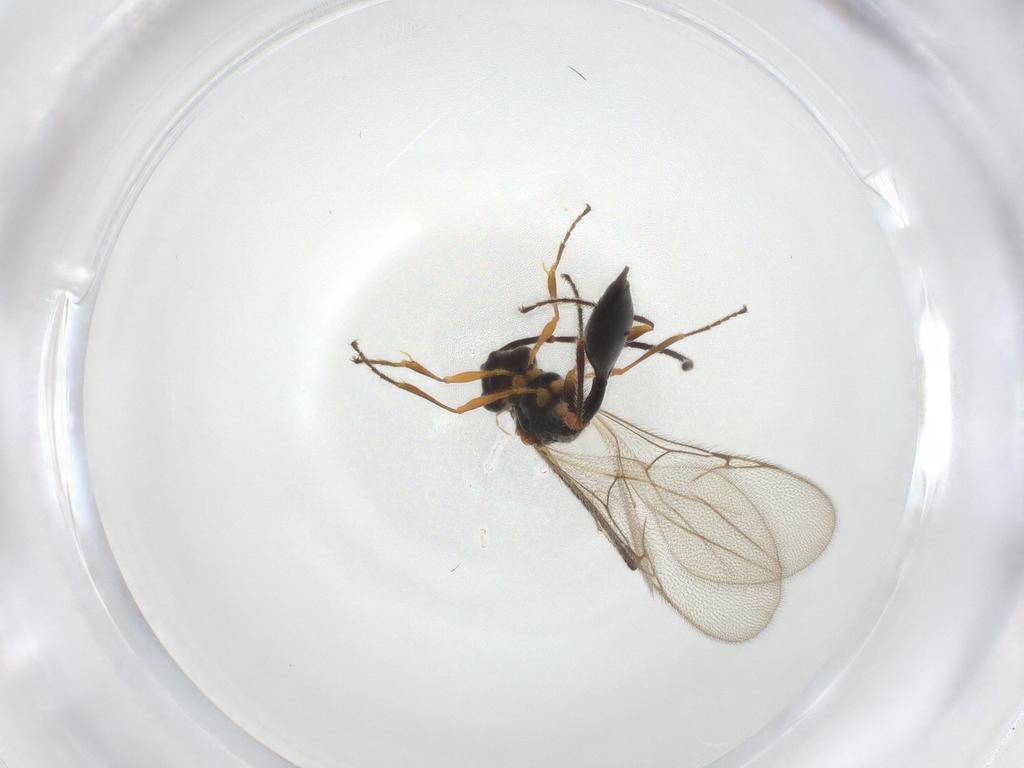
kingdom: Animalia
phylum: Arthropoda
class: Insecta
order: Hymenoptera
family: Diapriidae
